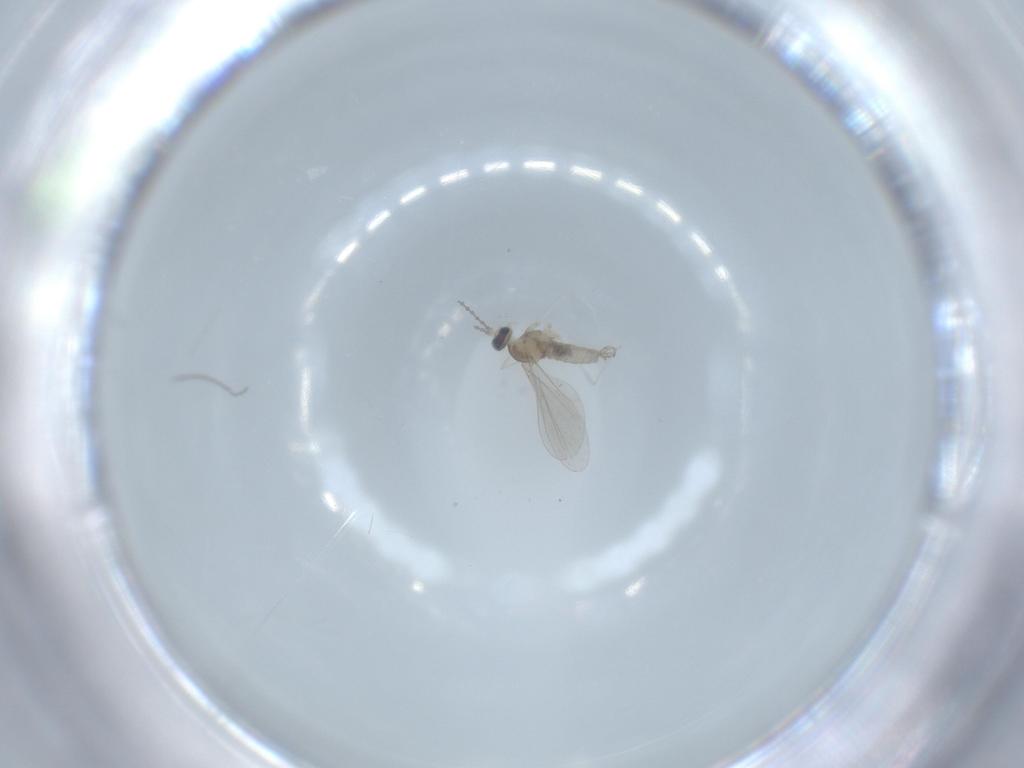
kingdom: Animalia
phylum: Arthropoda
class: Insecta
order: Diptera
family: Cecidomyiidae
